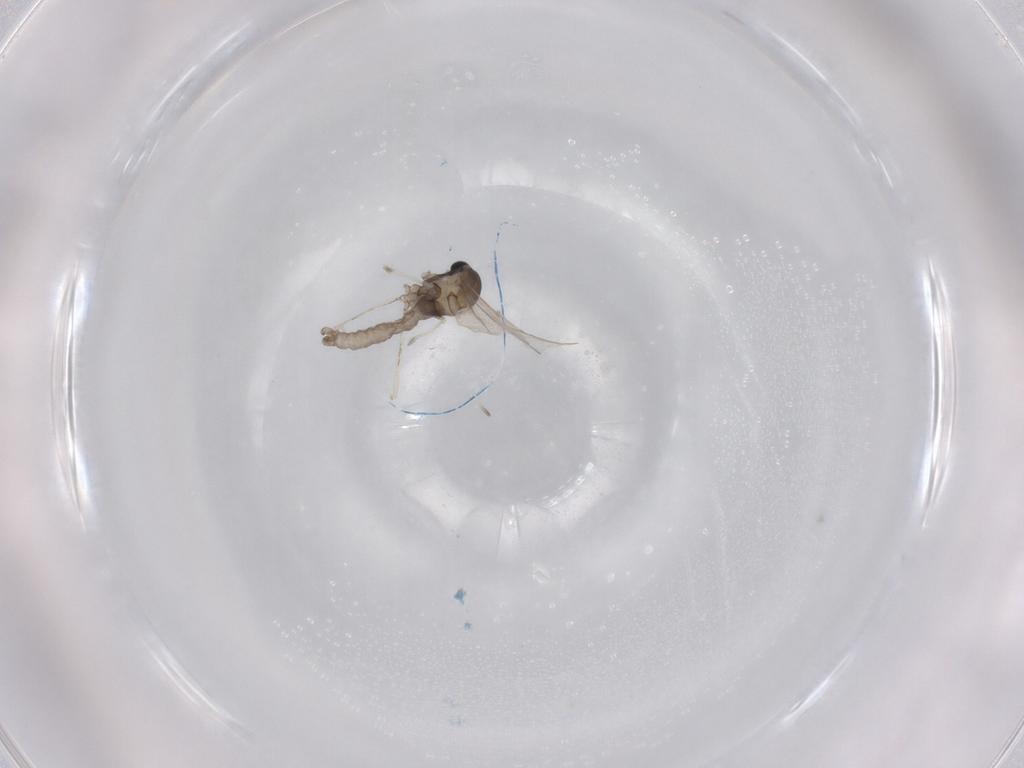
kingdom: Animalia
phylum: Arthropoda
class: Insecta
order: Diptera
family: Cecidomyiidae
